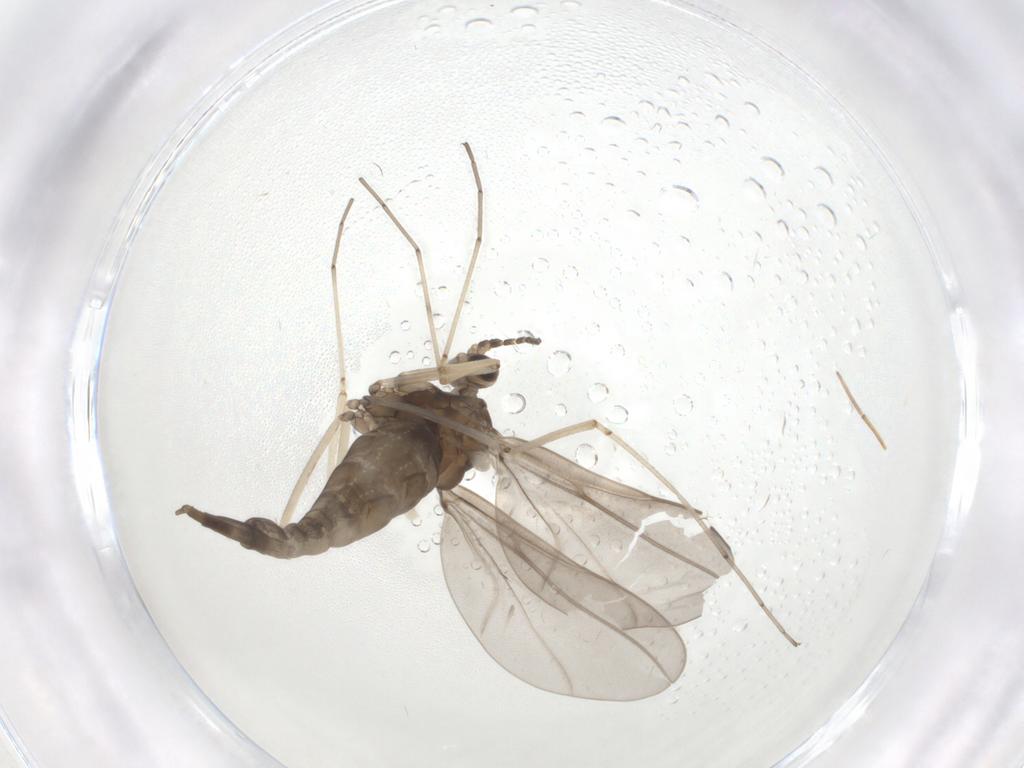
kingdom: Animalia
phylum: Arthropoda
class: Insecta
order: Diptera
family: Cecidomyiidae
